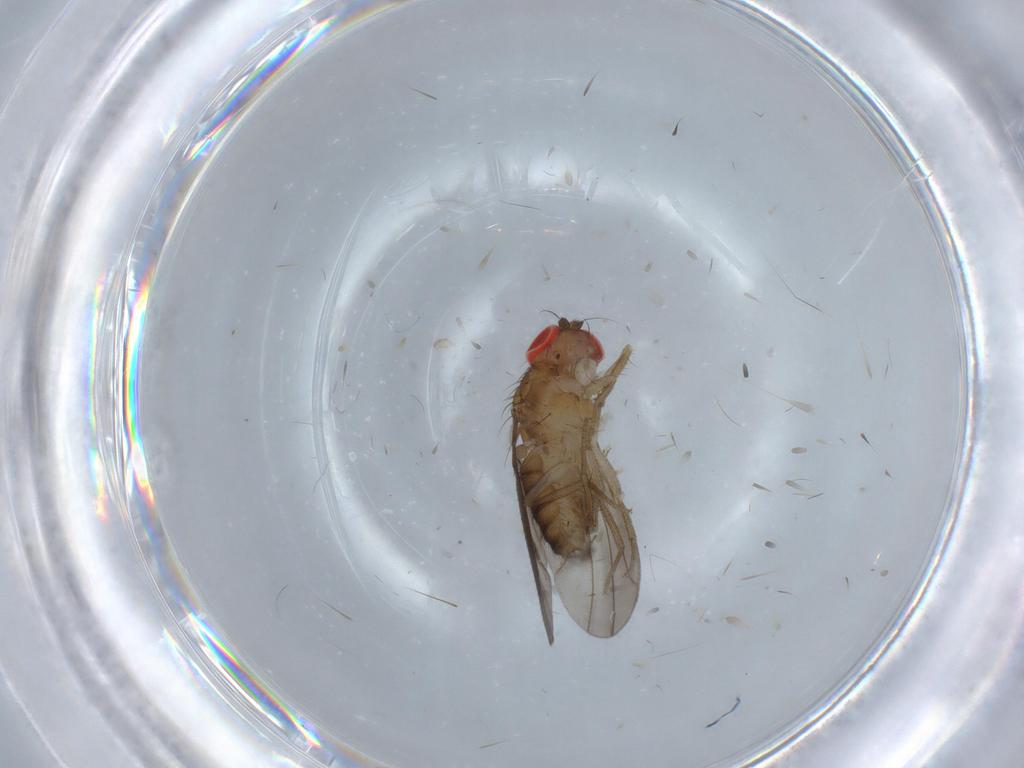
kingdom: Animalia
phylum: Arthropoda
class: Insecta
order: Diptera
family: Drosophilidae
